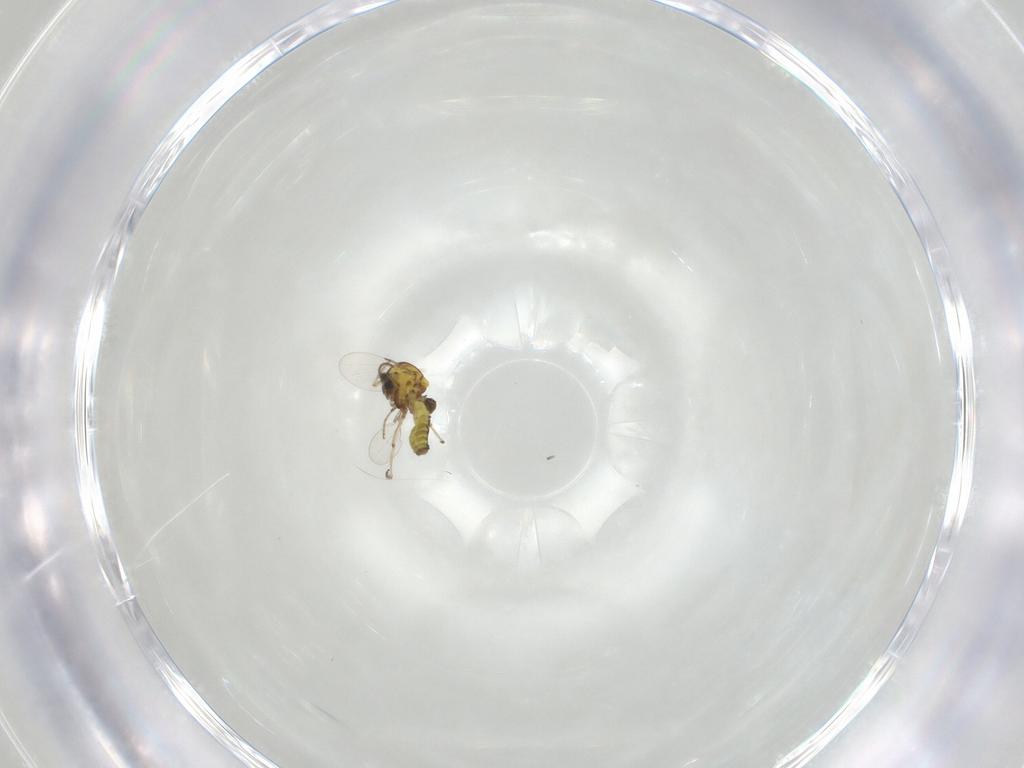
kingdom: Animalia
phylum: Arthropoda
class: Insecta
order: Diptera
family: Ceratopogonidae
